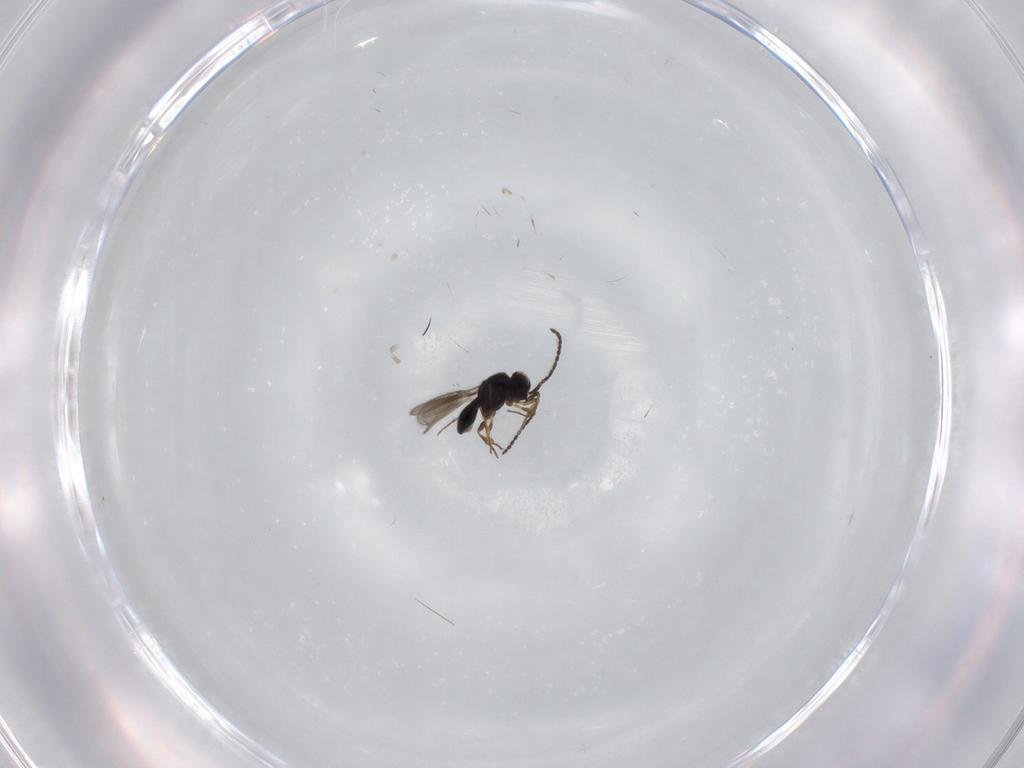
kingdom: Animalia
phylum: Arthropoda
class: Insecta
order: Hymenoptera
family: Scelionidae
